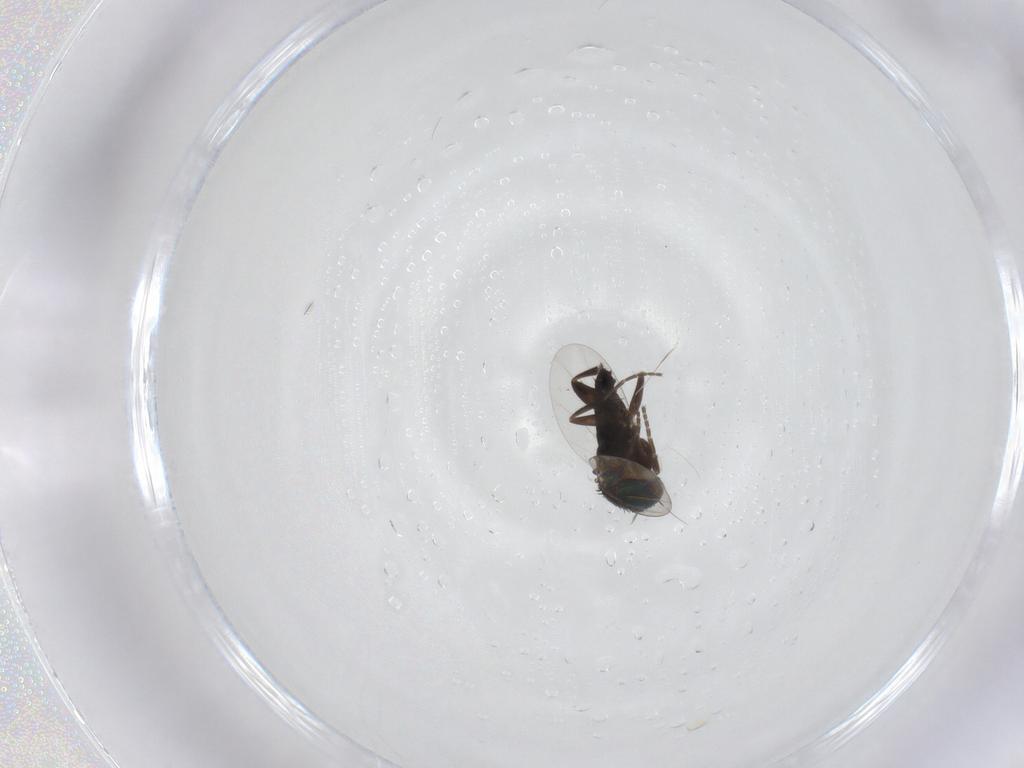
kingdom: Animalia
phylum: Arthropoda
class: Insecta
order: Diptera
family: Phoridae
